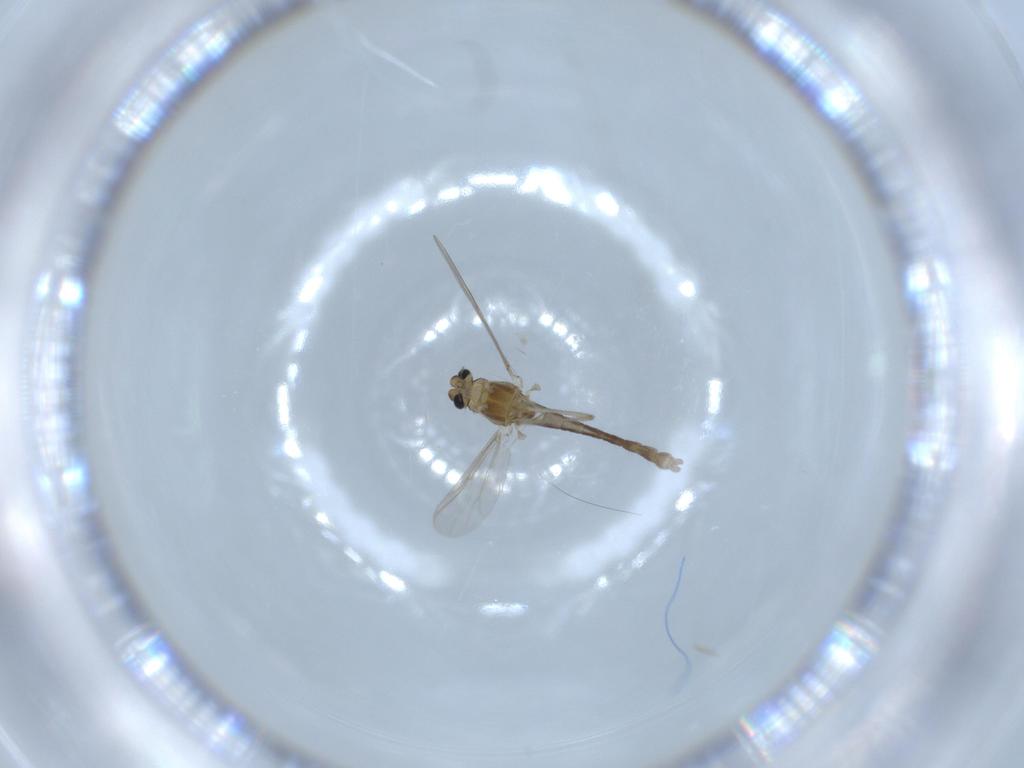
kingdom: Animalia
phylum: Arthropoda
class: Insecta
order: Diptera
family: Chironomidae
